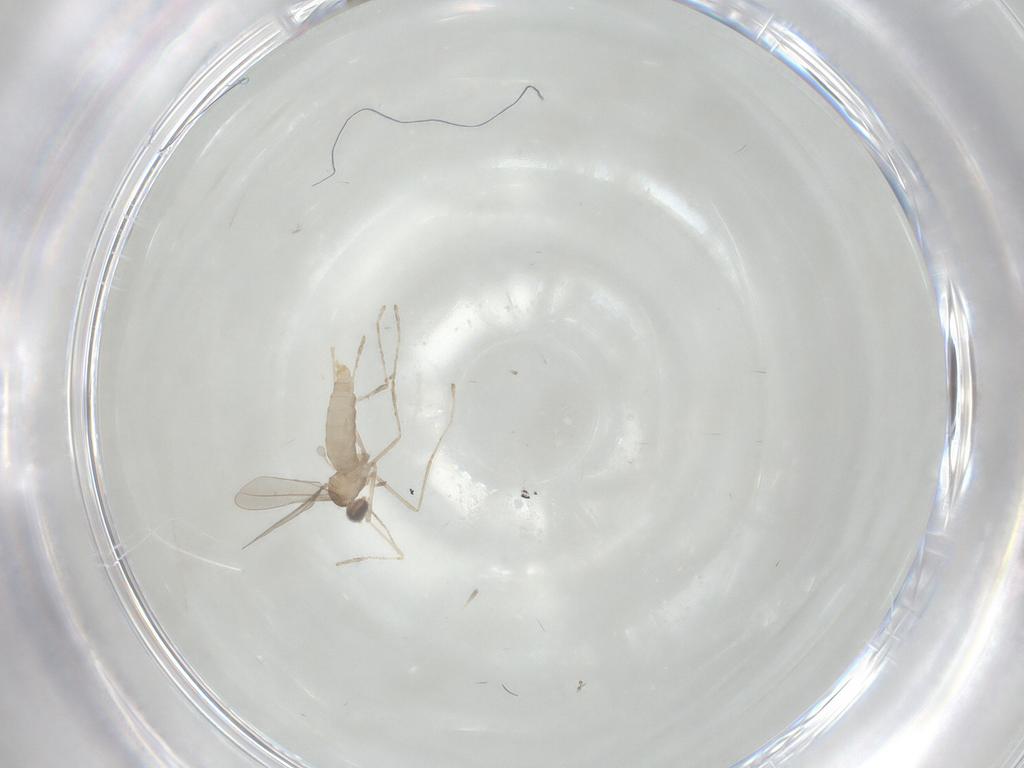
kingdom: Animalia
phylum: Arthropoda
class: Insecta
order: Diptera
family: Cecidomyiidae
